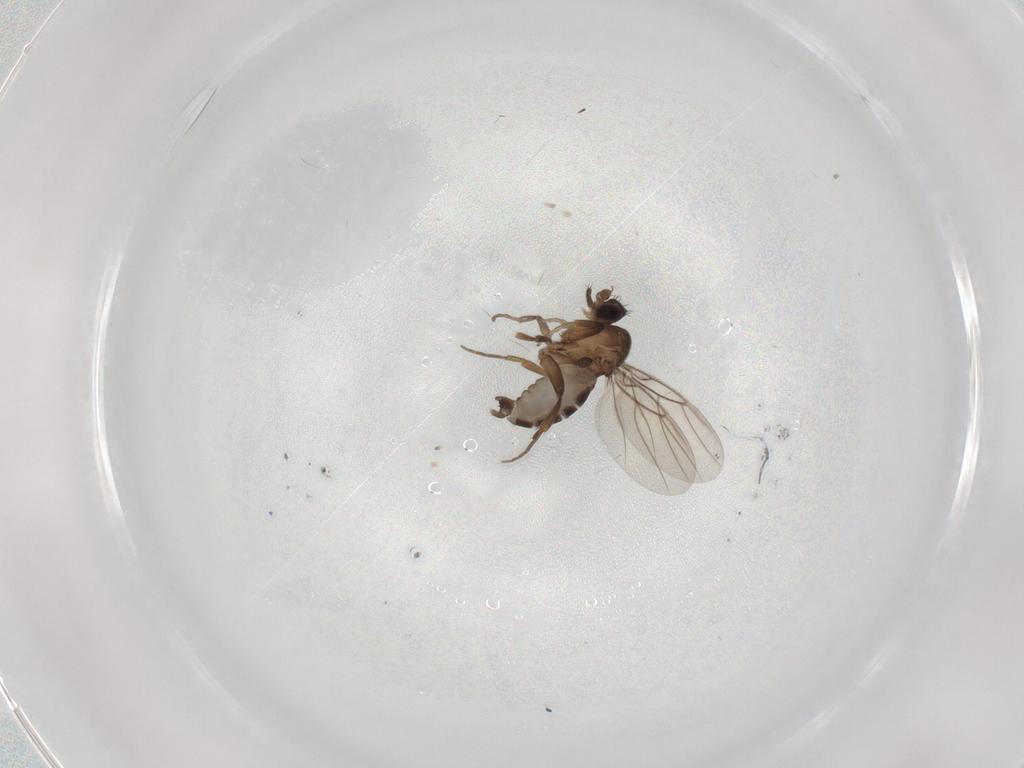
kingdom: Animalia
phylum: Arthropoda
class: Insecta
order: Diptera
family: Phoridae
